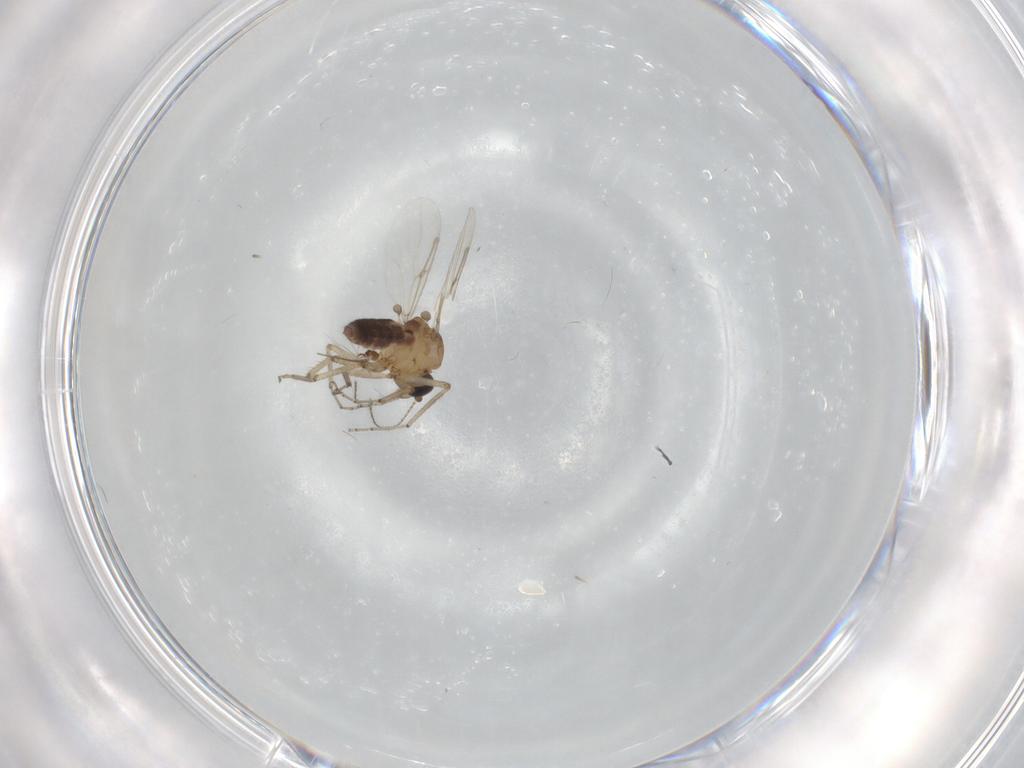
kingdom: Animalia
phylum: Arthropoda
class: Insecta
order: Diptera
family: Ceratopogonidae
